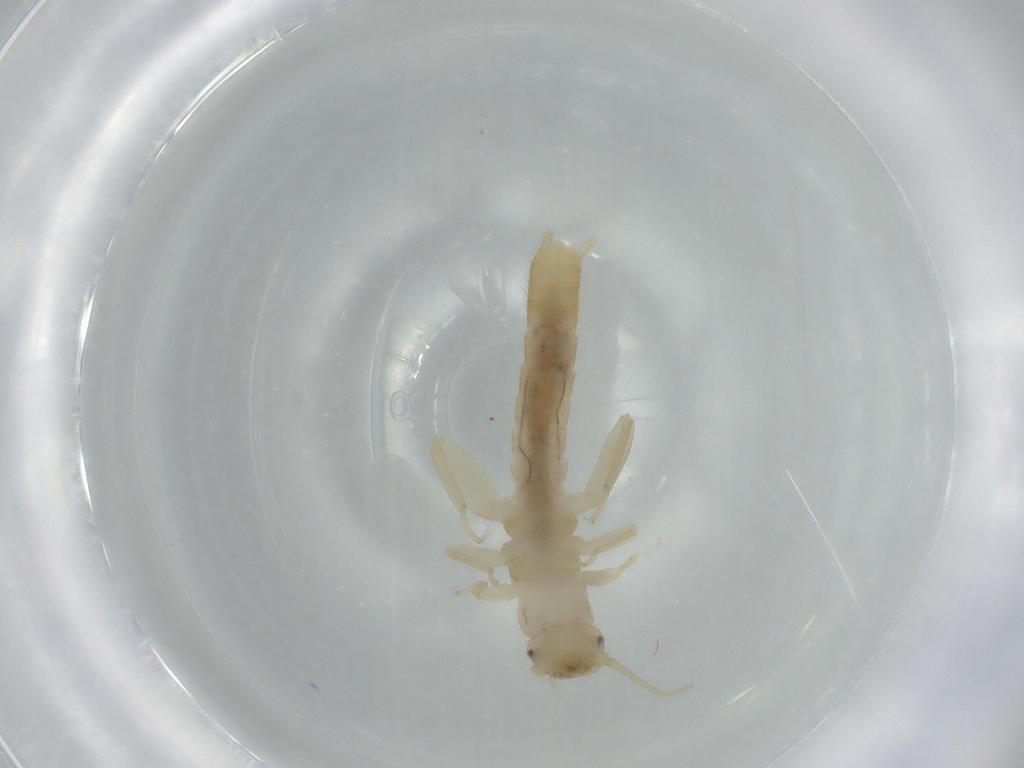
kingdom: Animalia
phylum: Arthropoda
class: Insecta
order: Plecoptera
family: Leuctridae
